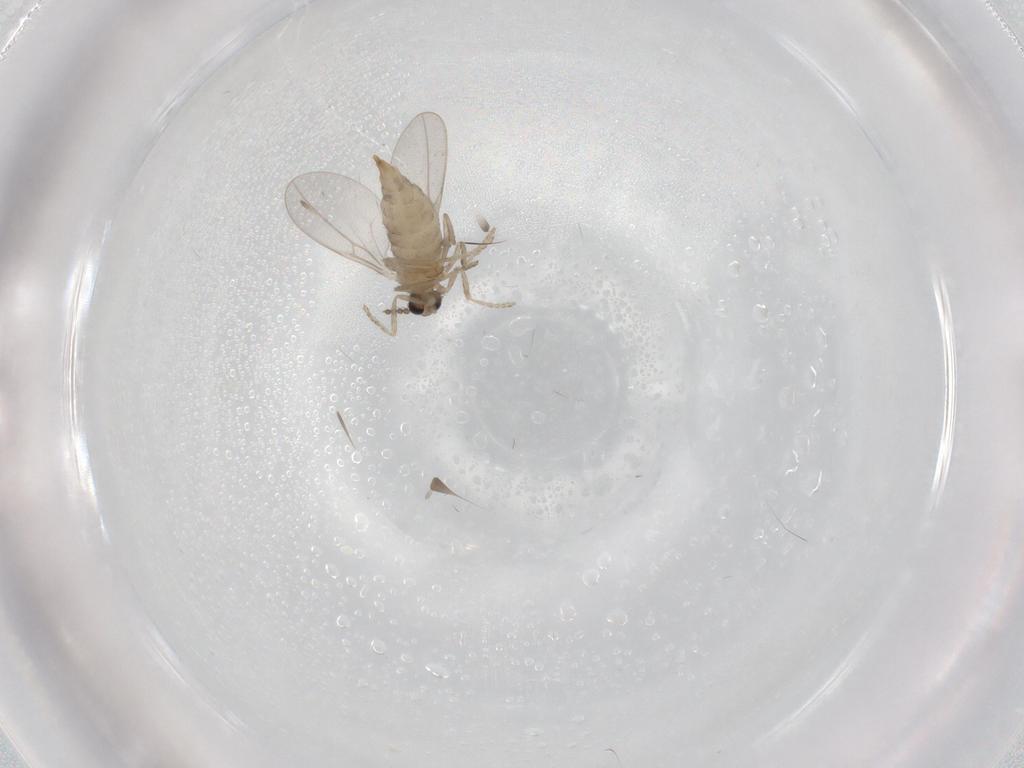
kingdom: Animalia
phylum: Arthropoda
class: Insecta
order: Diptera
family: Cecidomyiidae
